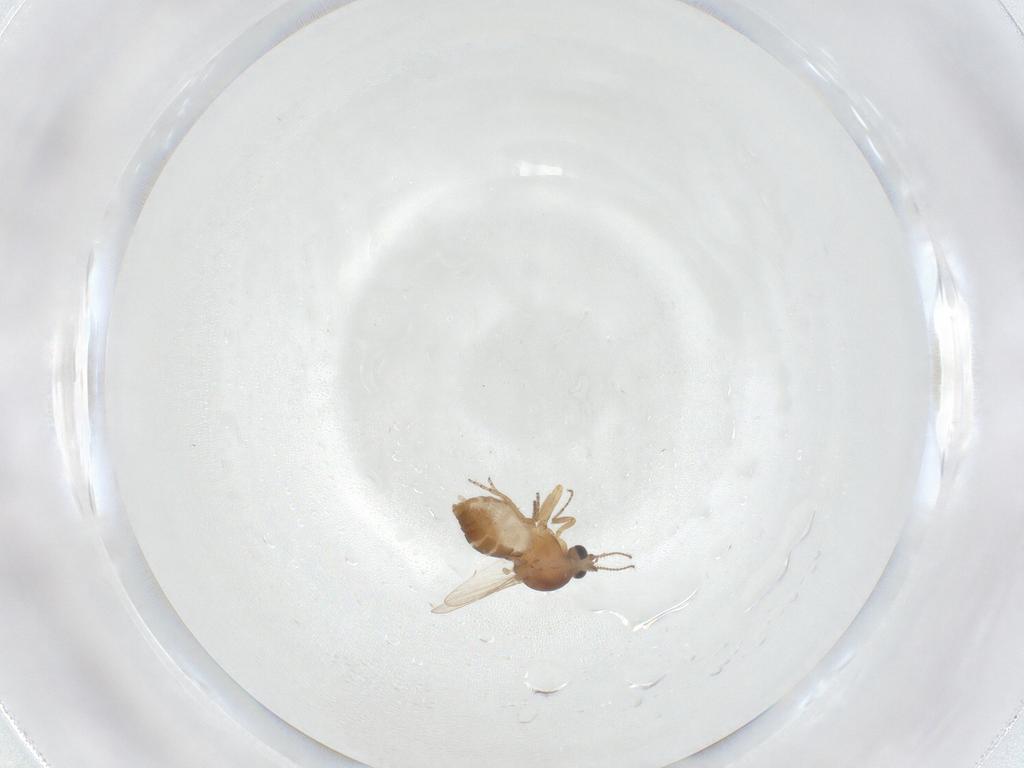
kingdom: Animalia
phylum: Arthropoda
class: Insecta
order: Diptera
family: Ceratopogonidae
